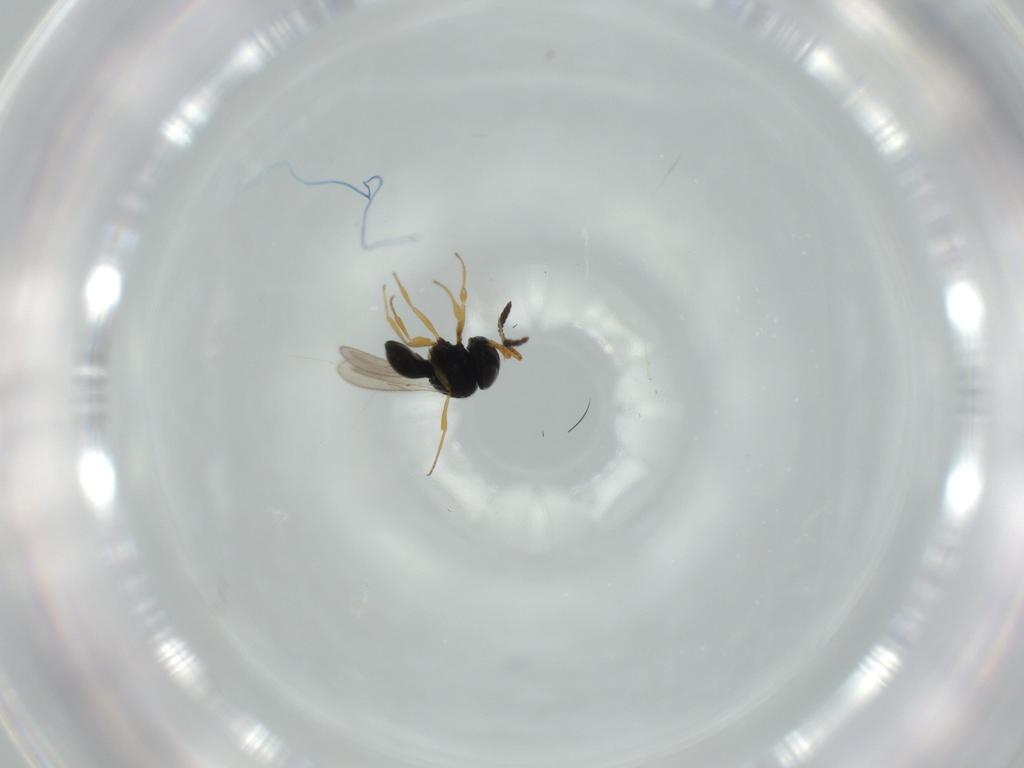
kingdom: Animalia
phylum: Arthropoda
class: Insecta
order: Hymenoptera
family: Scelionidae
